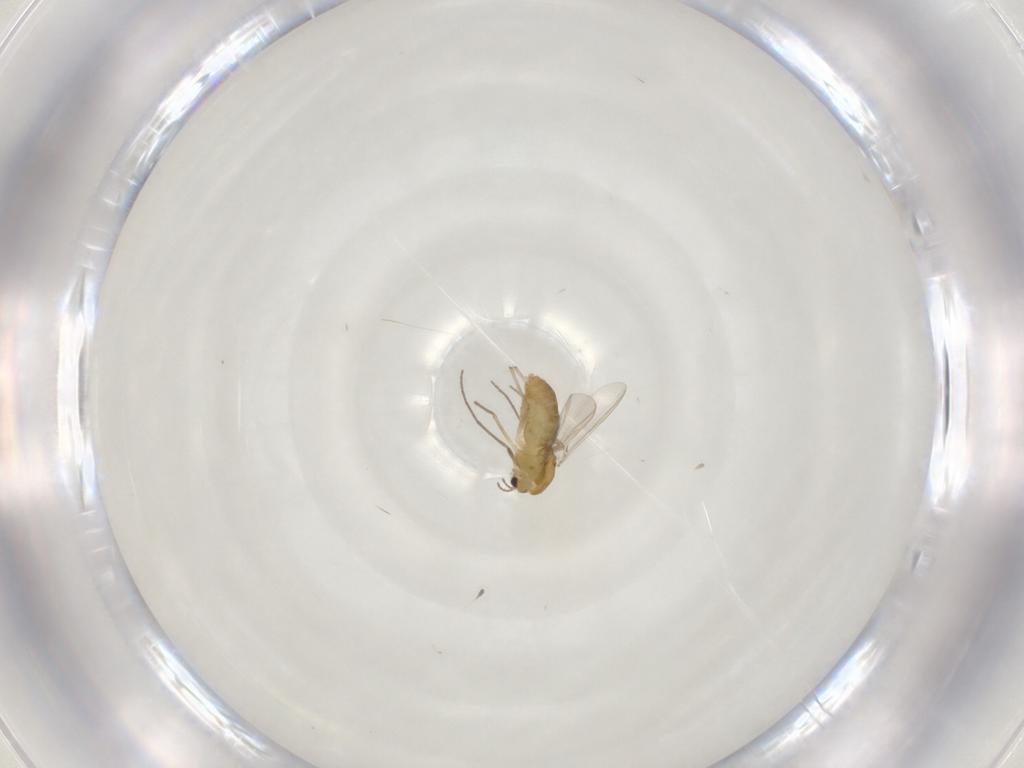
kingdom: Animalia
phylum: Arthropoda
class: Insecta
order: Diptera
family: Chironomidae
